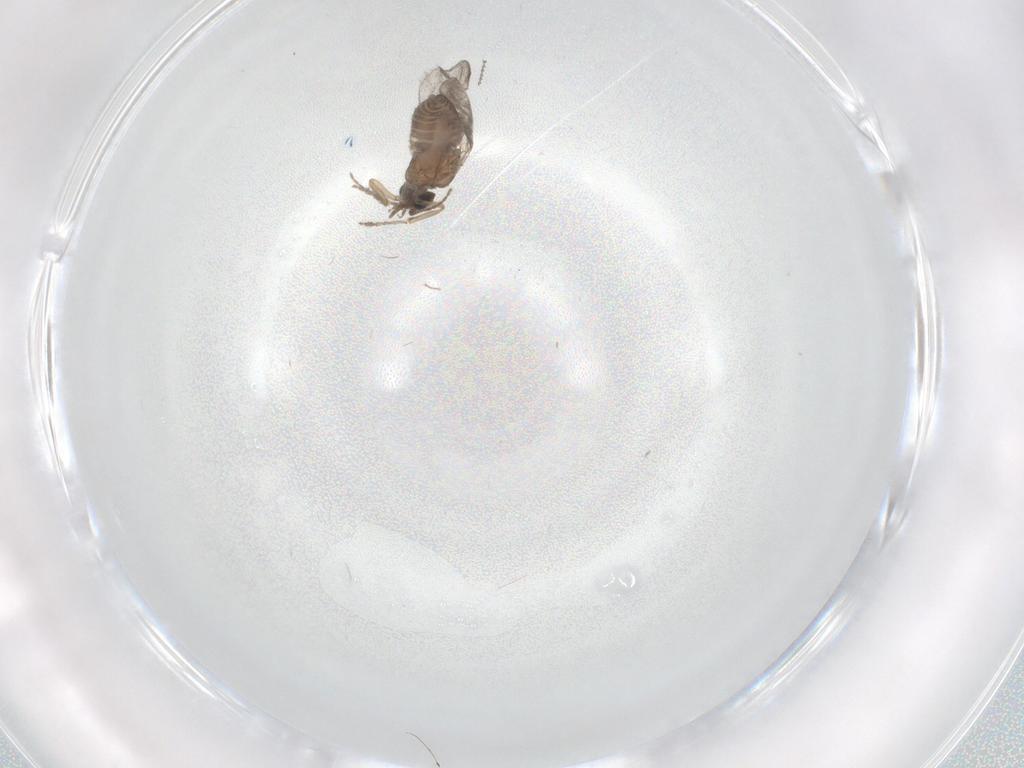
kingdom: Animalia
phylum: Arthropoda
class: Insecta
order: Diptera
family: Cecidomyiidae
